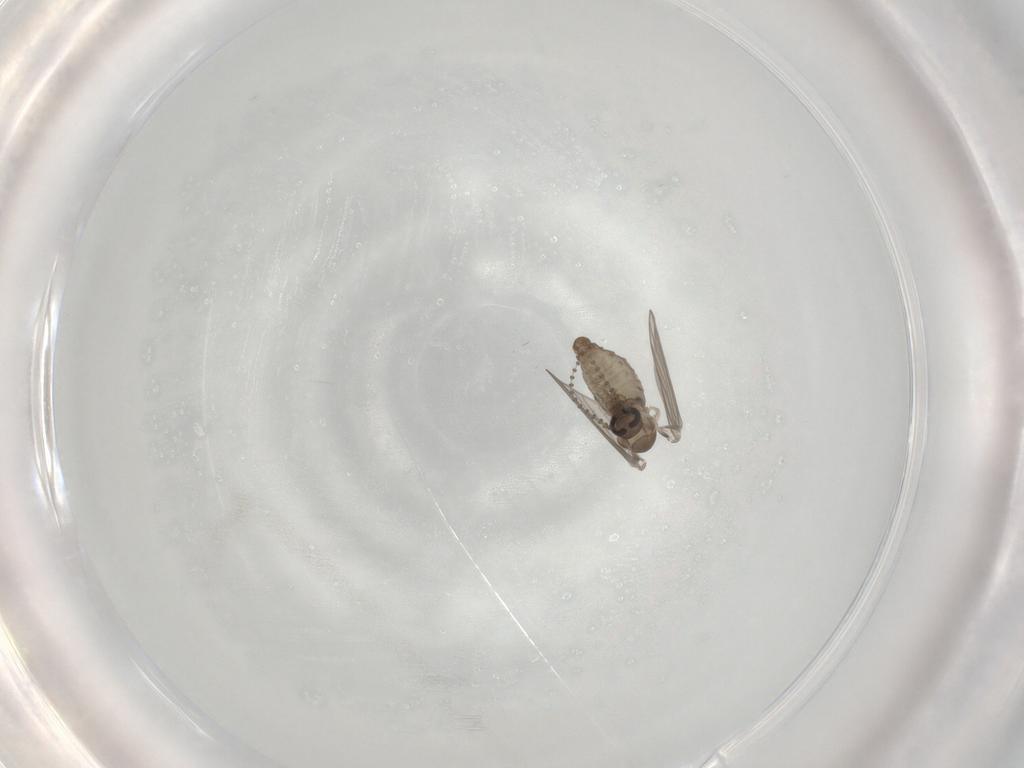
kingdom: Animalia
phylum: Arthropoda
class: Insecta
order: Diptera
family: Psychodidae
